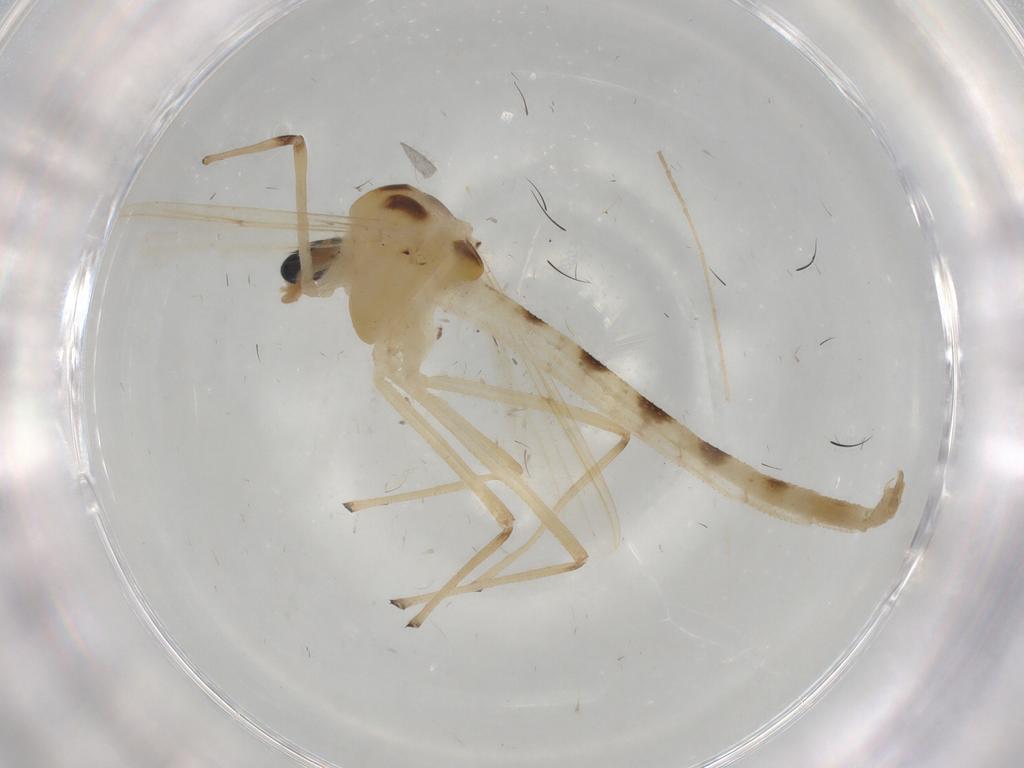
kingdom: Animalia
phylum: Arthropoda
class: Insecta
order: Diptera
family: Chironomidae
